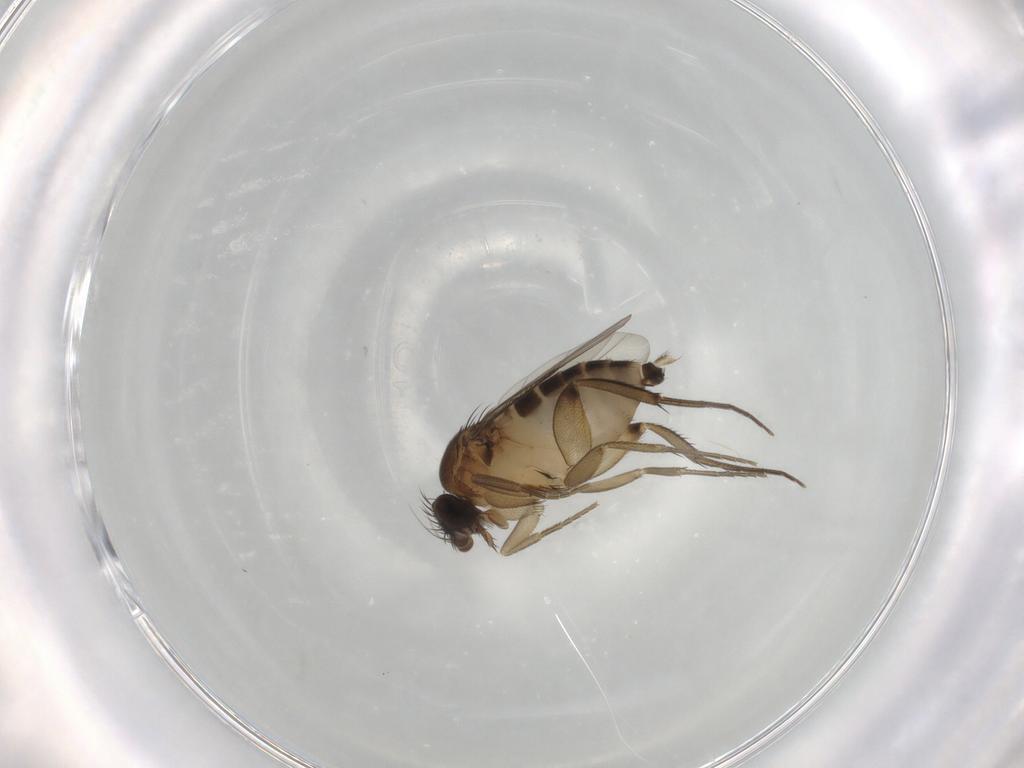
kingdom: Animalia
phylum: Arthropoda
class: Insecta
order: Diptera
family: Phoridae
